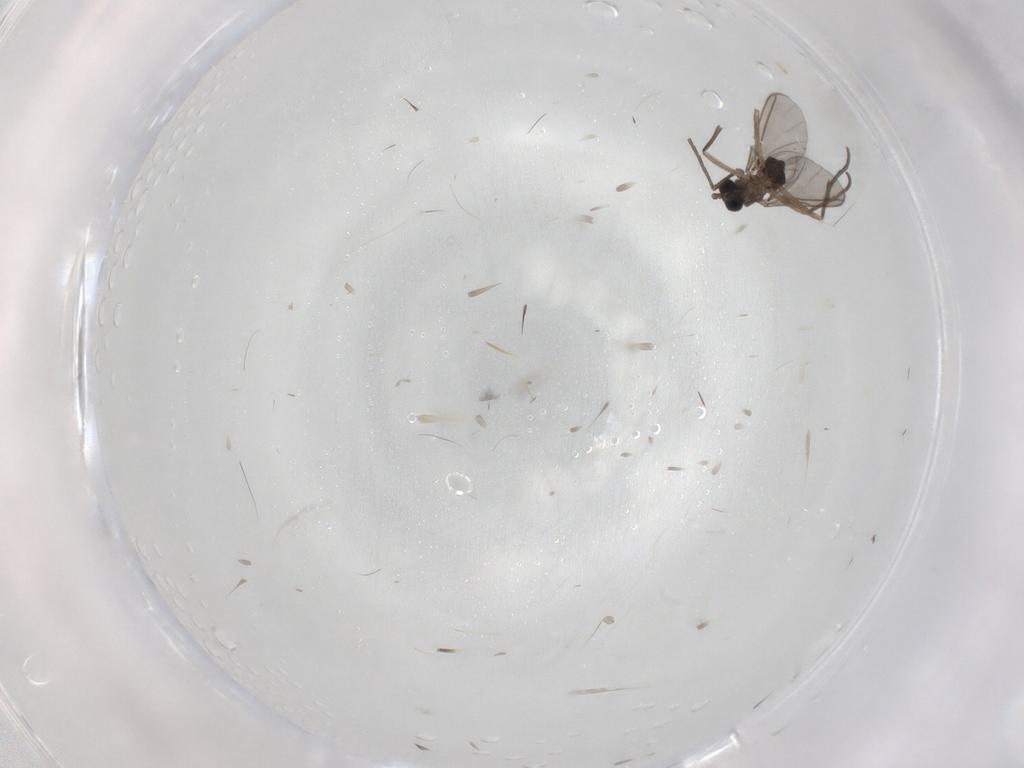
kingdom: Animalia
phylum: Arthropoda
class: Insecta
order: Diptera
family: Sciaridae
